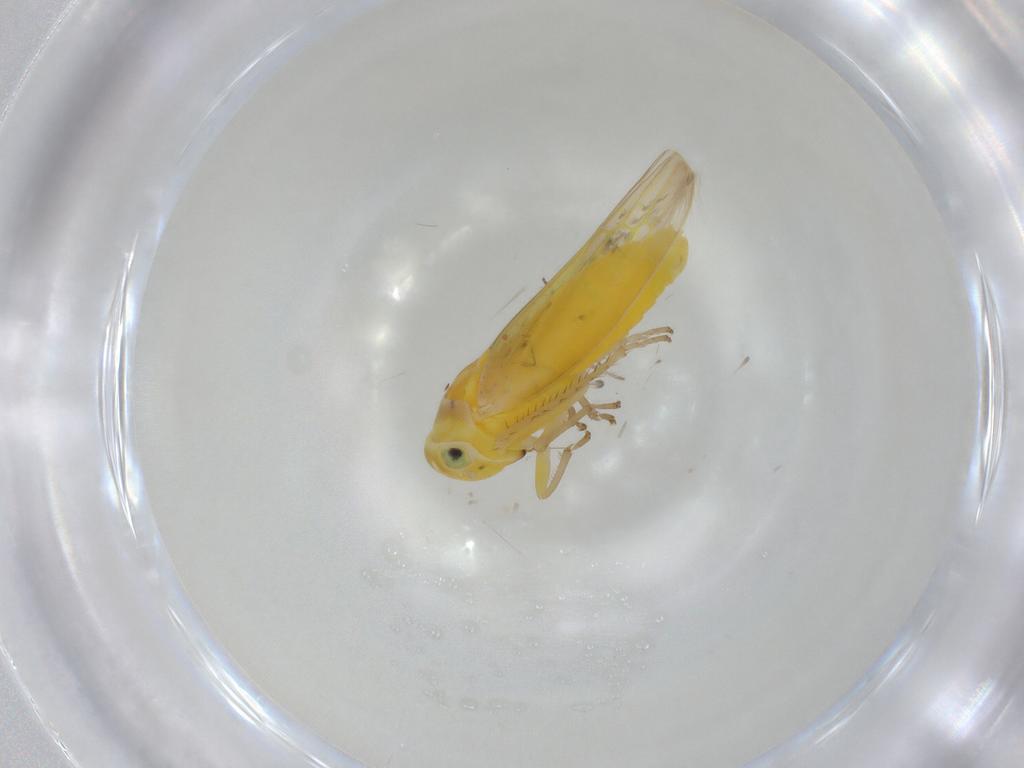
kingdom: Animalia
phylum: Arthropoda
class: Insecta
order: Hemiptera
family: Cicadellidae
